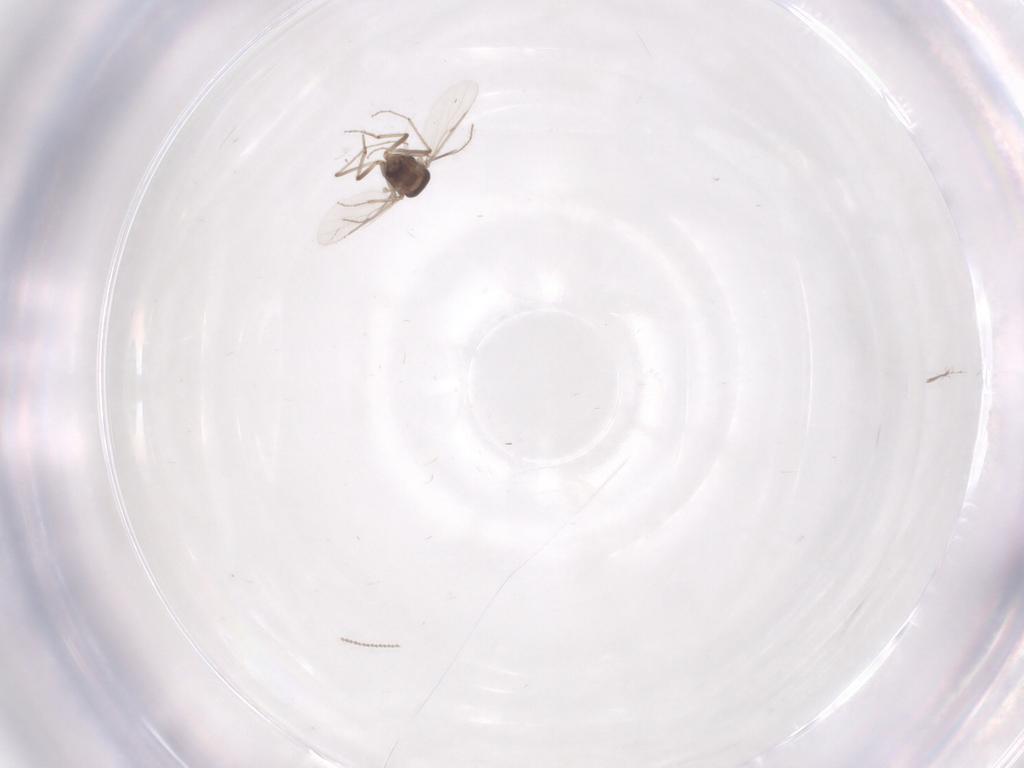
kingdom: Animalia
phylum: Arthropoda
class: Insecta
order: Diptera
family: Ceratopogonidae
